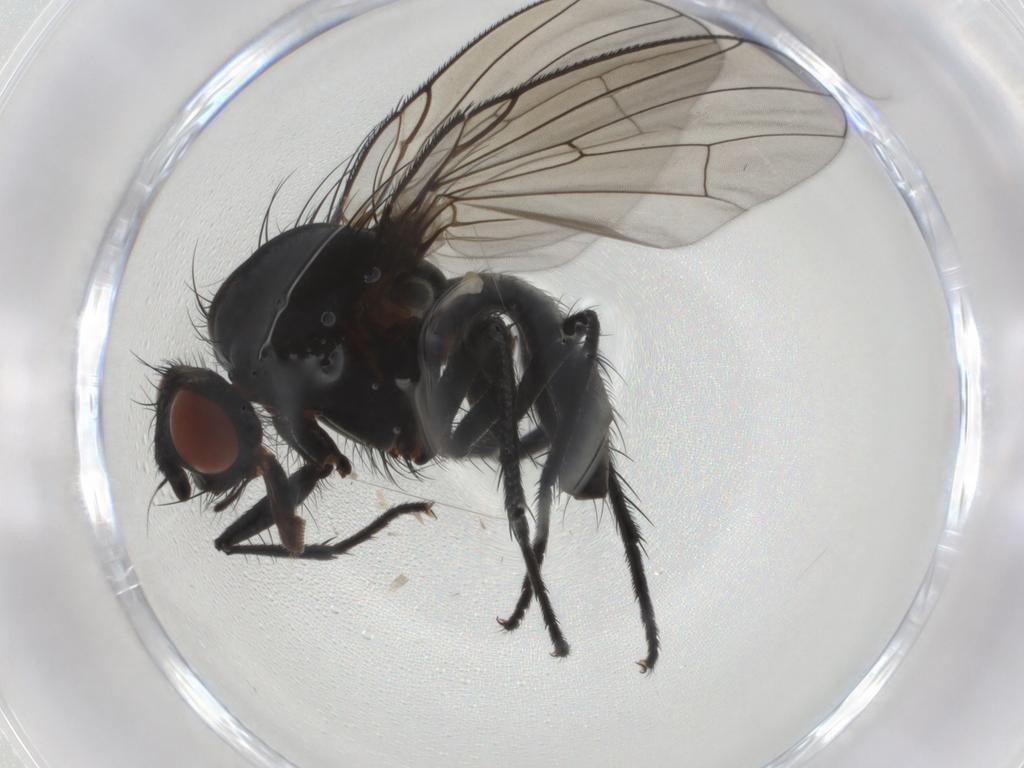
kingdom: Animalia
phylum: Arthropoda
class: Insecta
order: Diptera
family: Anthomyiidae
